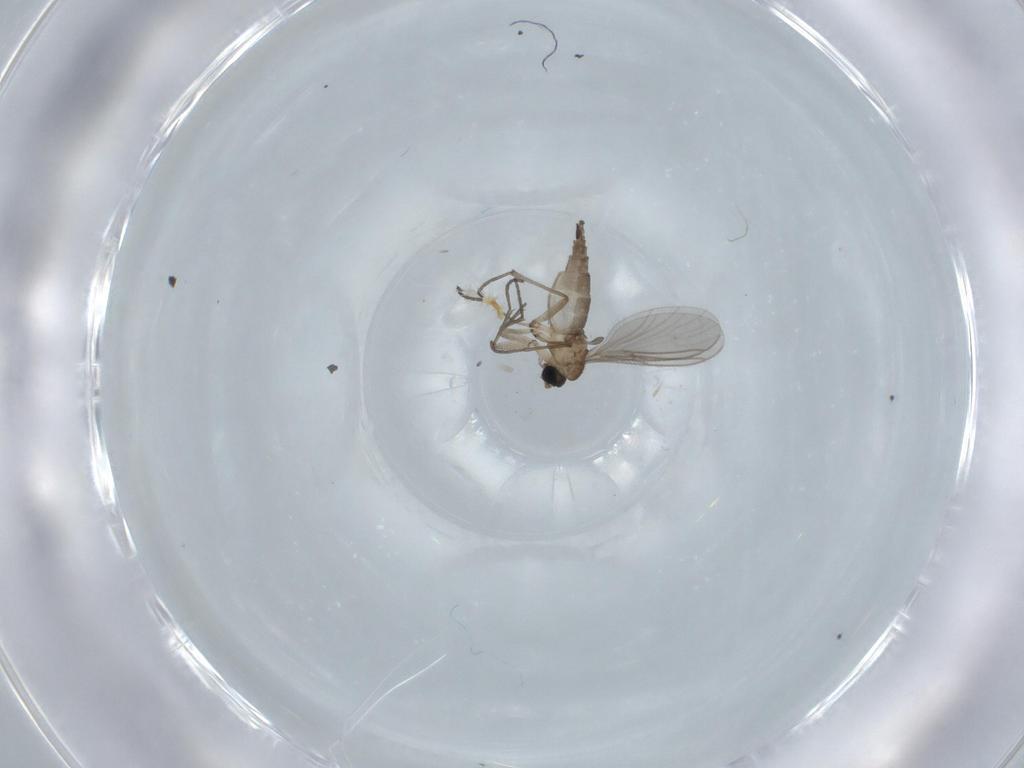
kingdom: Animalia
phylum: Arthropoda
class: Insecta
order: Diptera
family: Sciaridae
